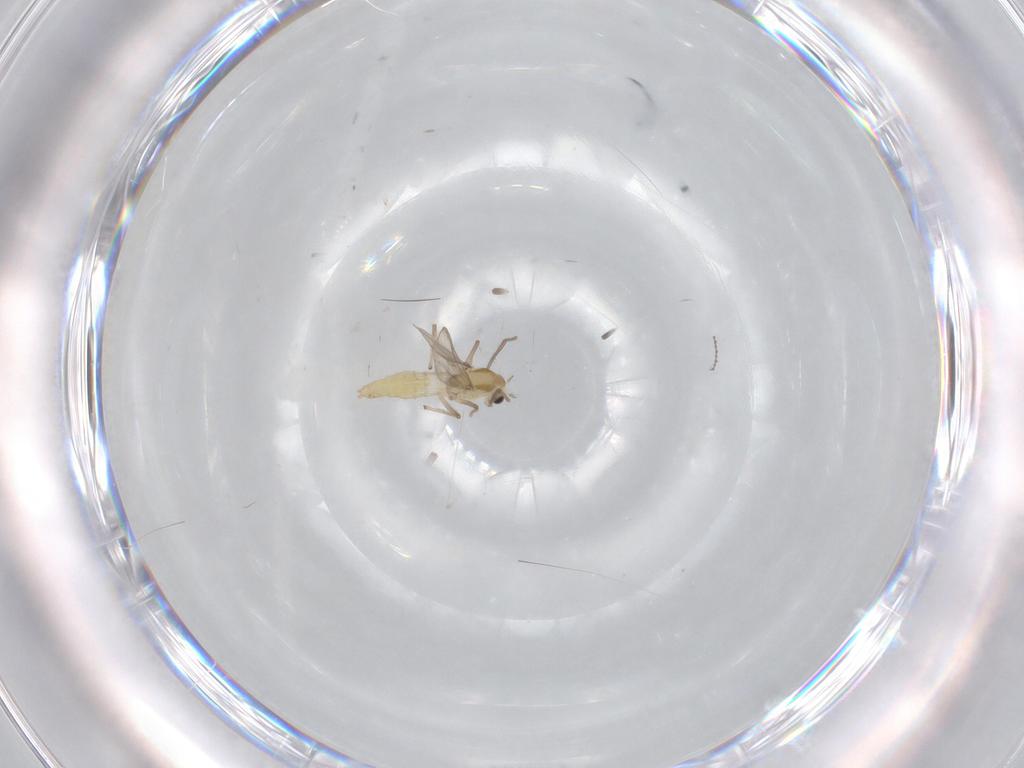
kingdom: Animalia
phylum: Arthropoda
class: Insecta
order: Diptera
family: Chironomidae
